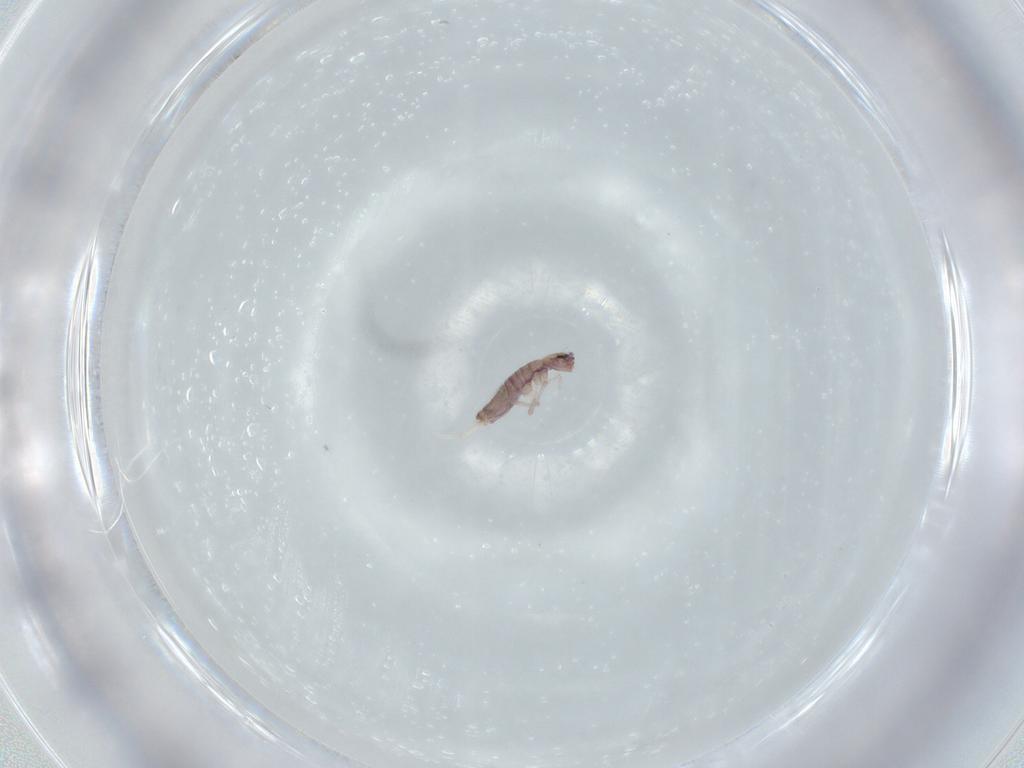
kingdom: Animalia
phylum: Arthropoda
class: Collembola
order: Entomobryomorpha
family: Entomobryidae
